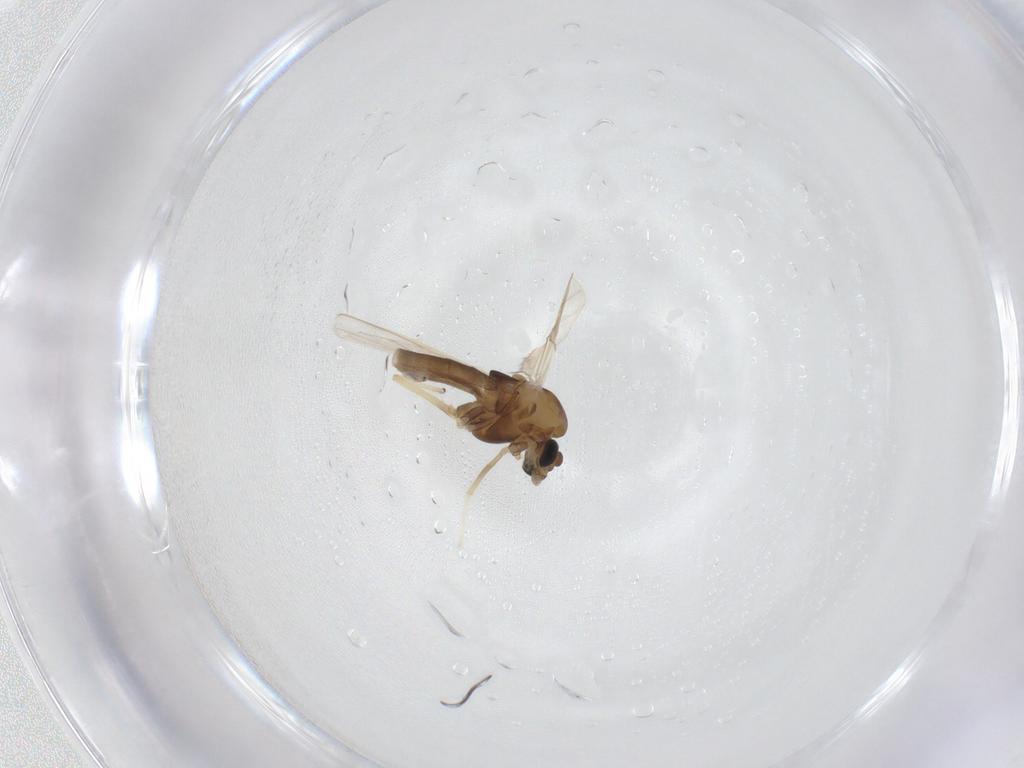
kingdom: Animalia
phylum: Arthropoda
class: Insecta
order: Diptera
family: Chironomidae
